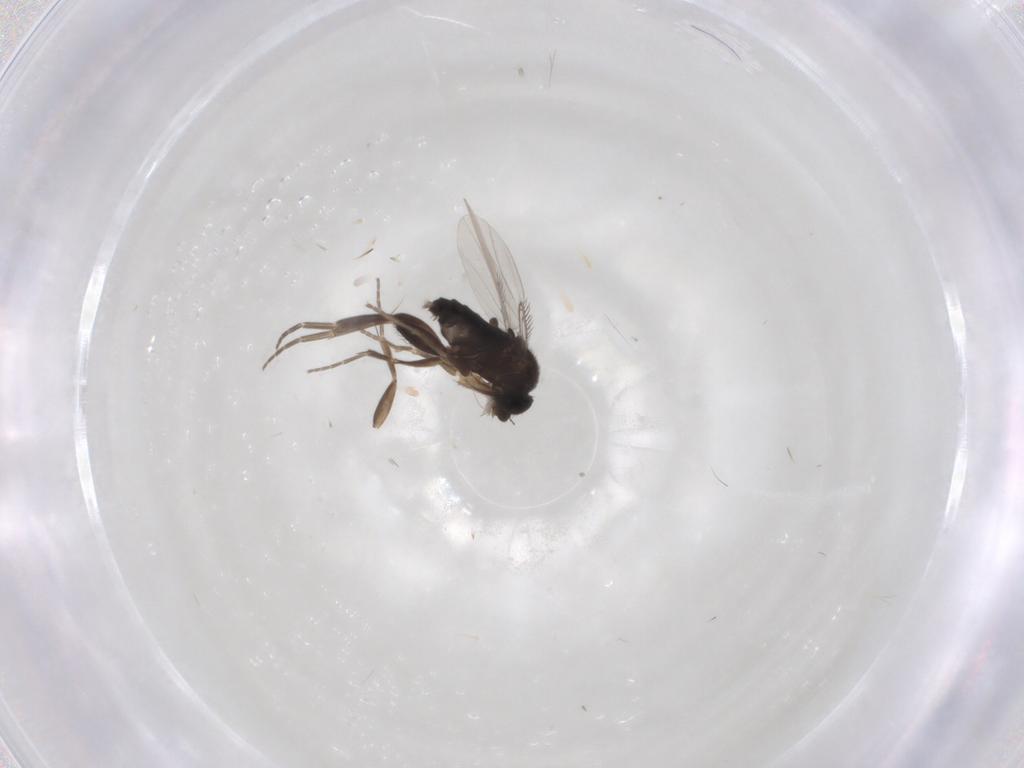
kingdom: Animalia
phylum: Arthropoda
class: Insecta
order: Diptera
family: Phoridae
